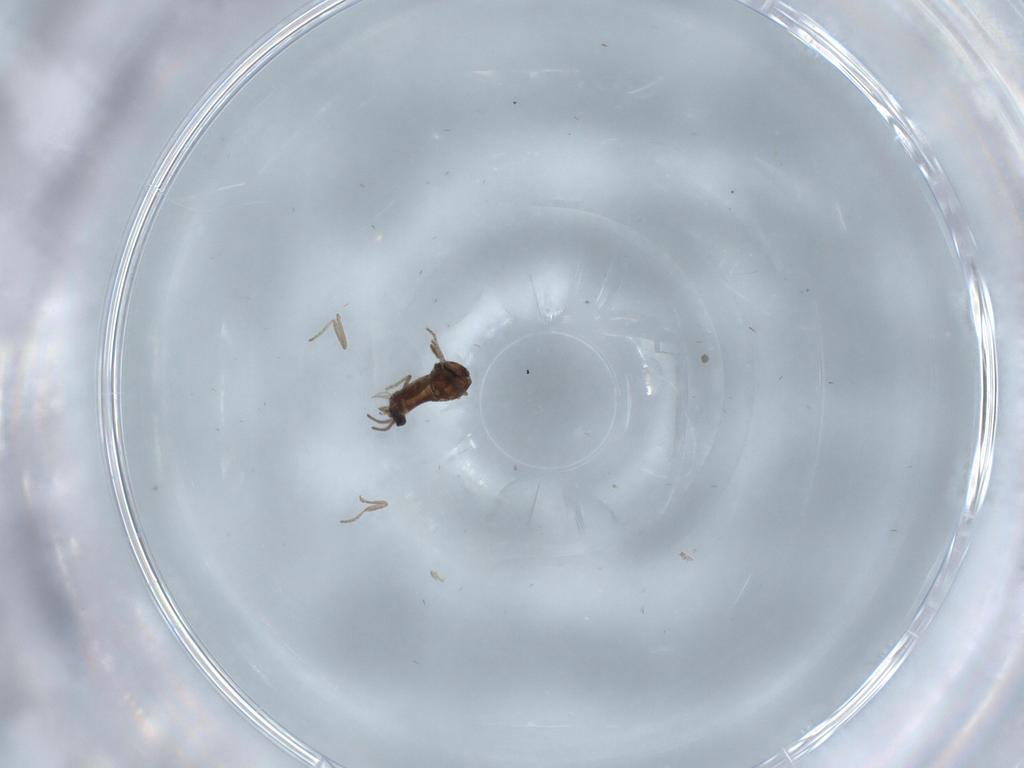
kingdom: Animalia
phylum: Arthropoda
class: Insecta
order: Diptera
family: Ceratopogonidae
